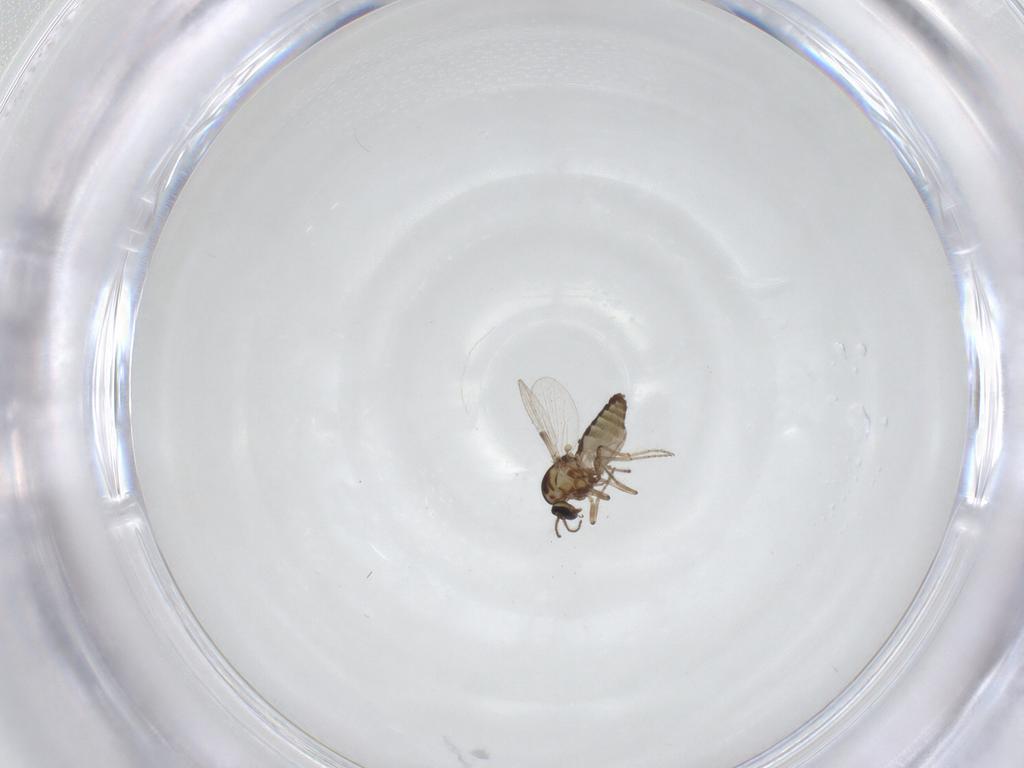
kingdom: Animalia
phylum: Arthropoda
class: Insecta
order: Diptera
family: Ceratopogonidae
